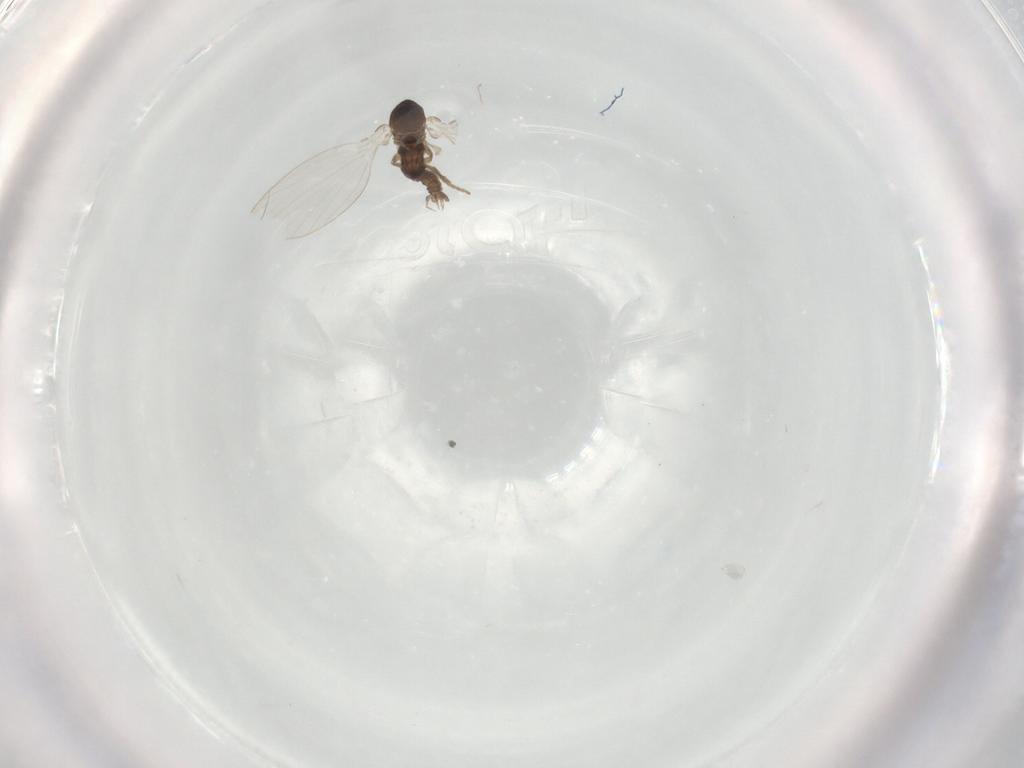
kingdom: Animalia
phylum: Arthropoda
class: Insecta
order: Diptera
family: Psychodidae
